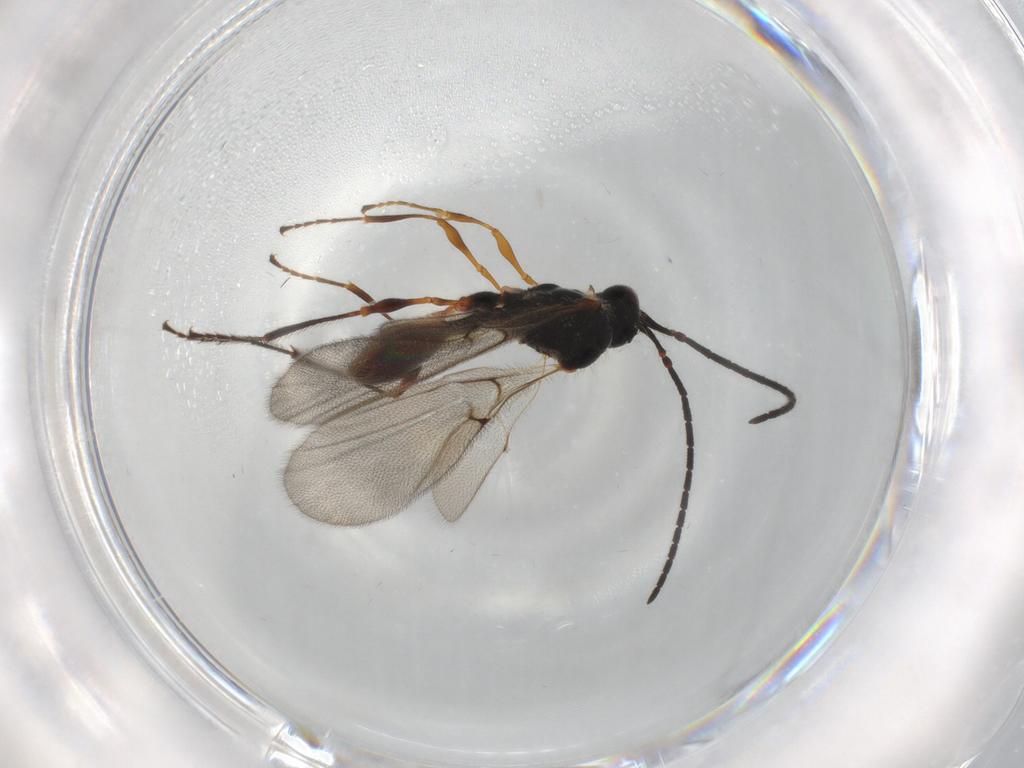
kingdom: Animalia
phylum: Arthropoda
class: Insecta
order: Hymenoptera
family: Diapriidae
